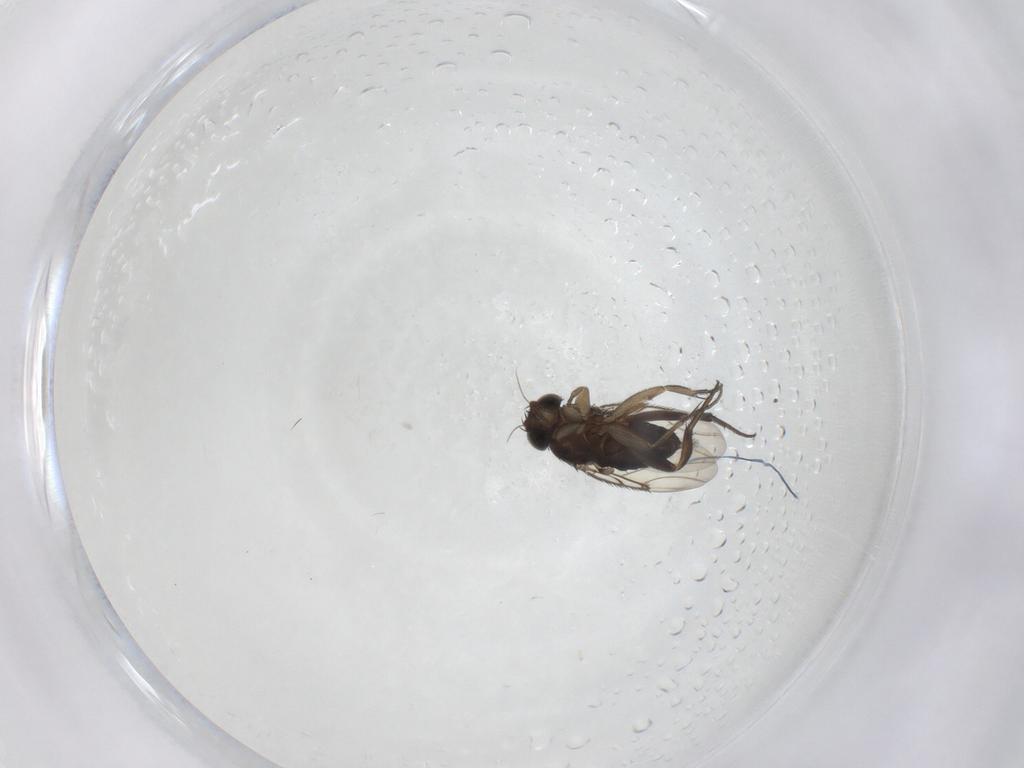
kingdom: Animalia
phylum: Arthropoda
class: Insecta
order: Diptera
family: Phoridae
